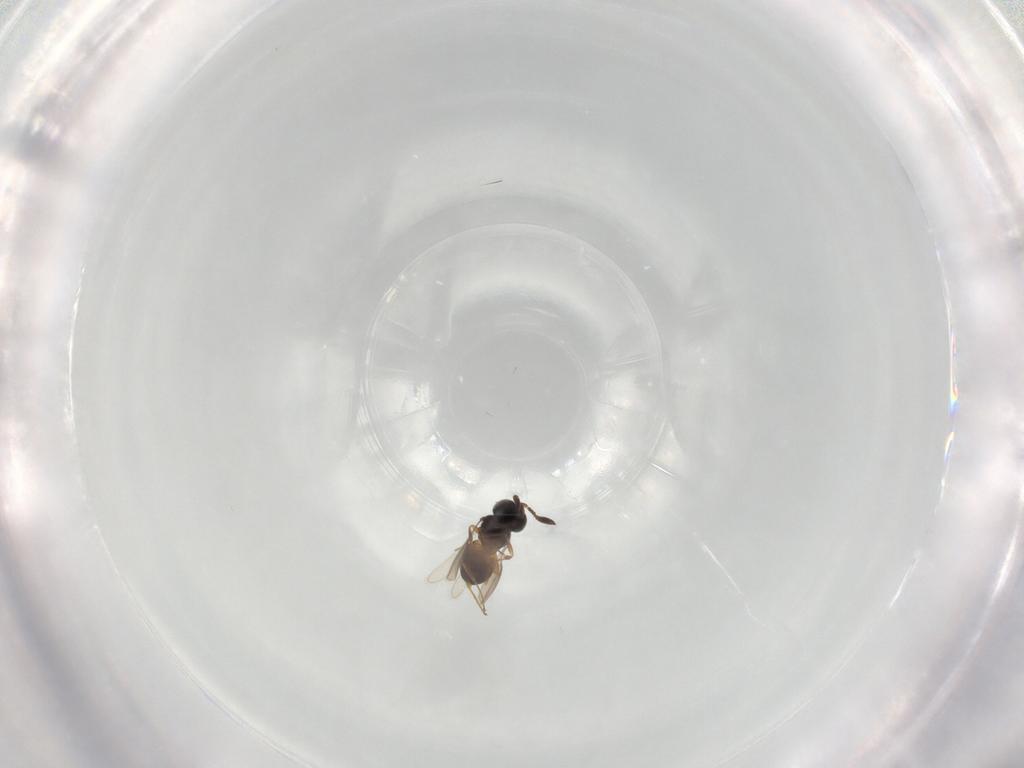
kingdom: Animalia
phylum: Arthropoda
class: Insecta
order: Hymenoptera
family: Scelionidae
